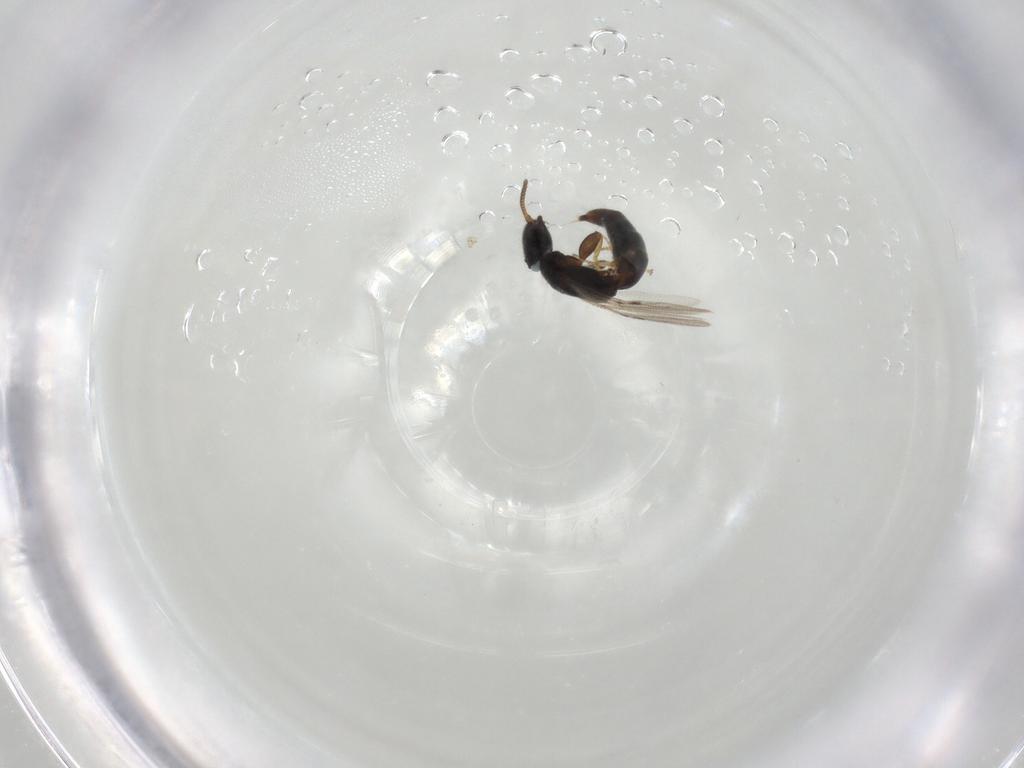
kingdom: Animalia
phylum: Arthropoda
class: Insecta
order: Hymenoptera
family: Bethylidae
